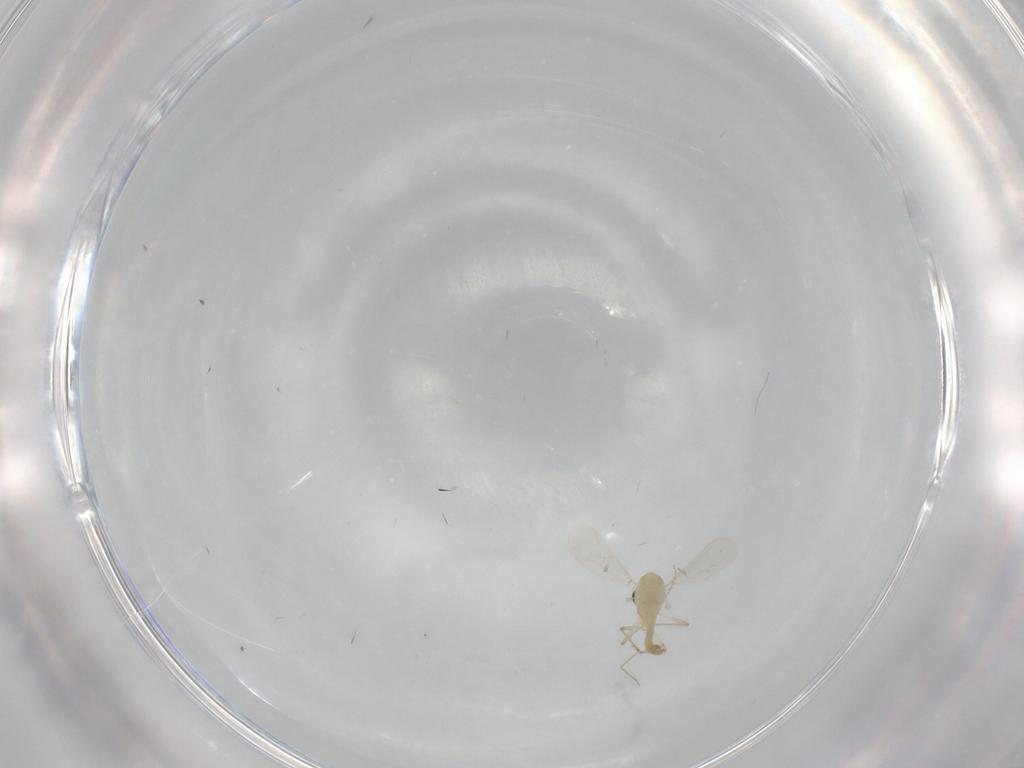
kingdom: Animalia
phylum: Arthropoda
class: Insecta
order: Diptera
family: Chironomidae
